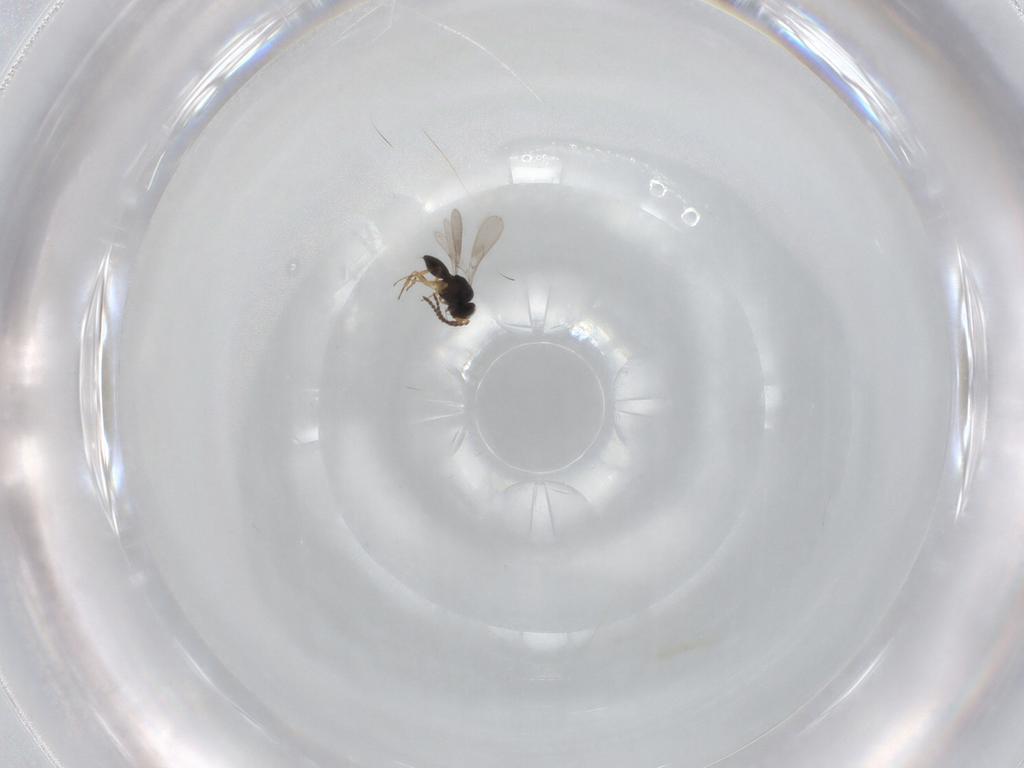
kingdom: Animalia
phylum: Arthropoda
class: Insecta
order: Hymenoptera
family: Scelionidae
